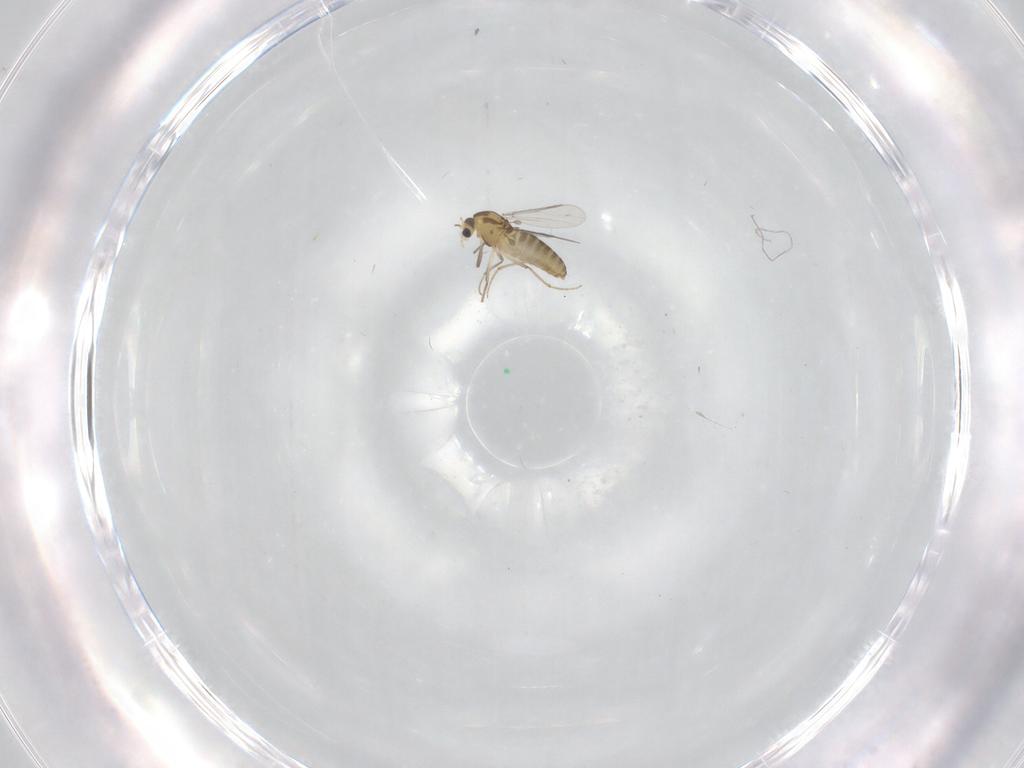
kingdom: Animalia
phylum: Arthropoda
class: Insecta
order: Diptera
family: Chironomidae
